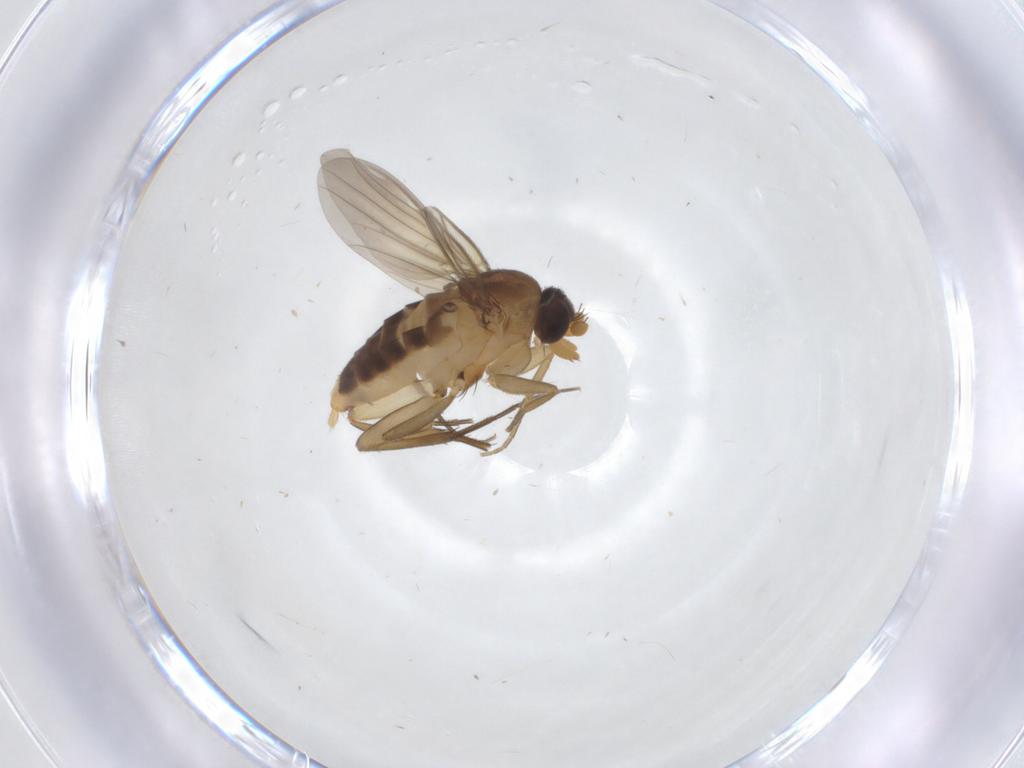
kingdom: Animalia
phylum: Arthropoda
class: Insecta
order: Diptera
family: Phoridae
